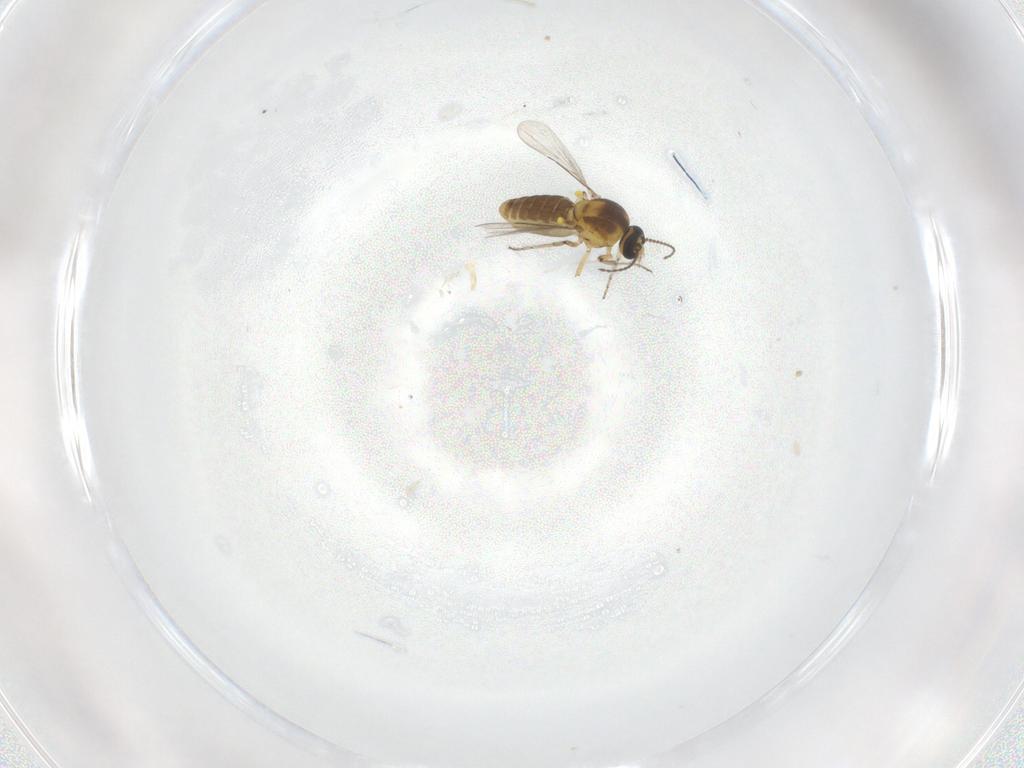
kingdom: Animalia
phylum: Arthropoda
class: Insecta
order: Diptera
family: Ceratopogonidae
